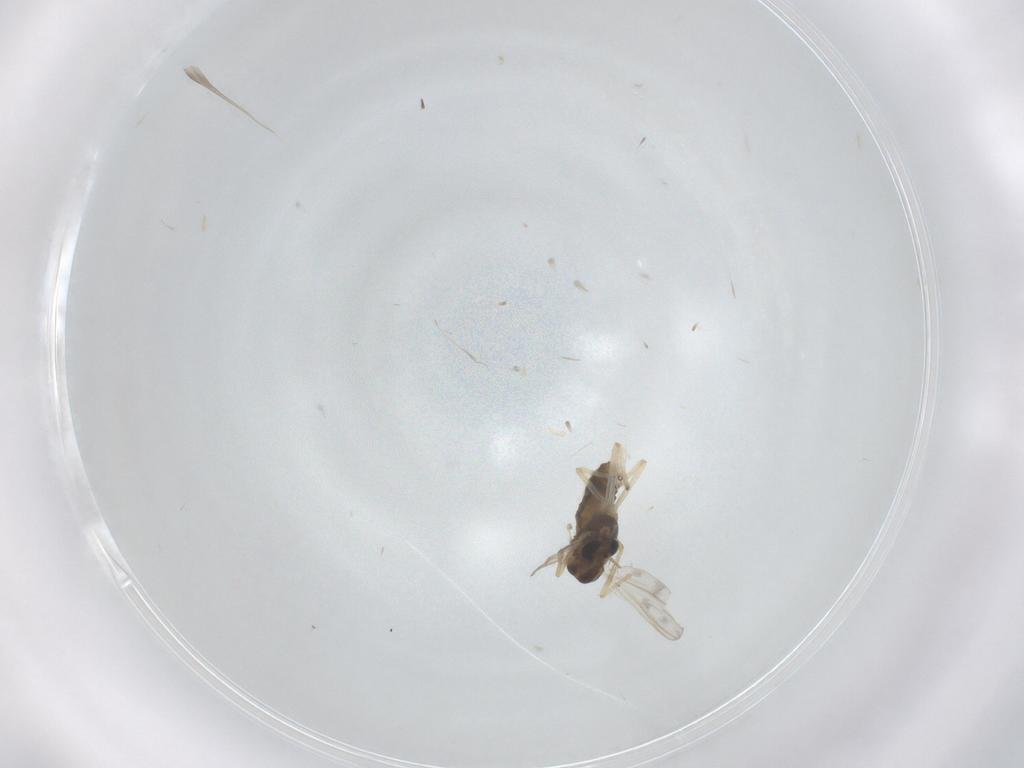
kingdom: Animalia
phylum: Arthropoda
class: Insecta
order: Diptera
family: Chironomidae
